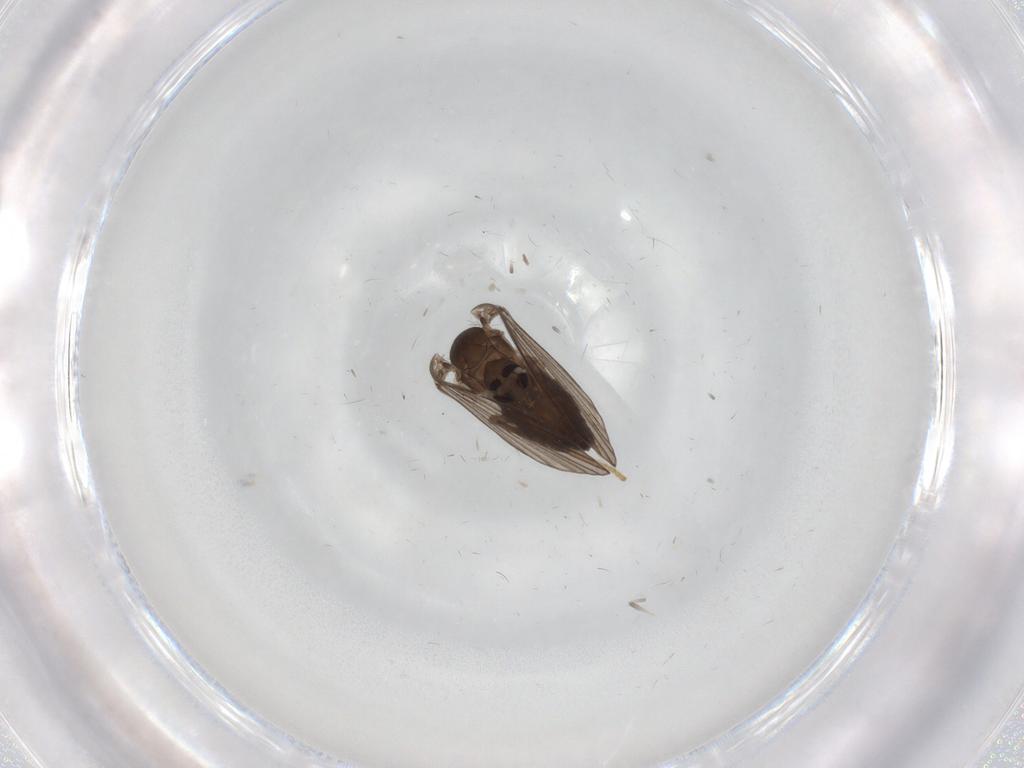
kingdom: Animalia
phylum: Arthropoda
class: Insecta
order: Diptera
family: Psychodidae
